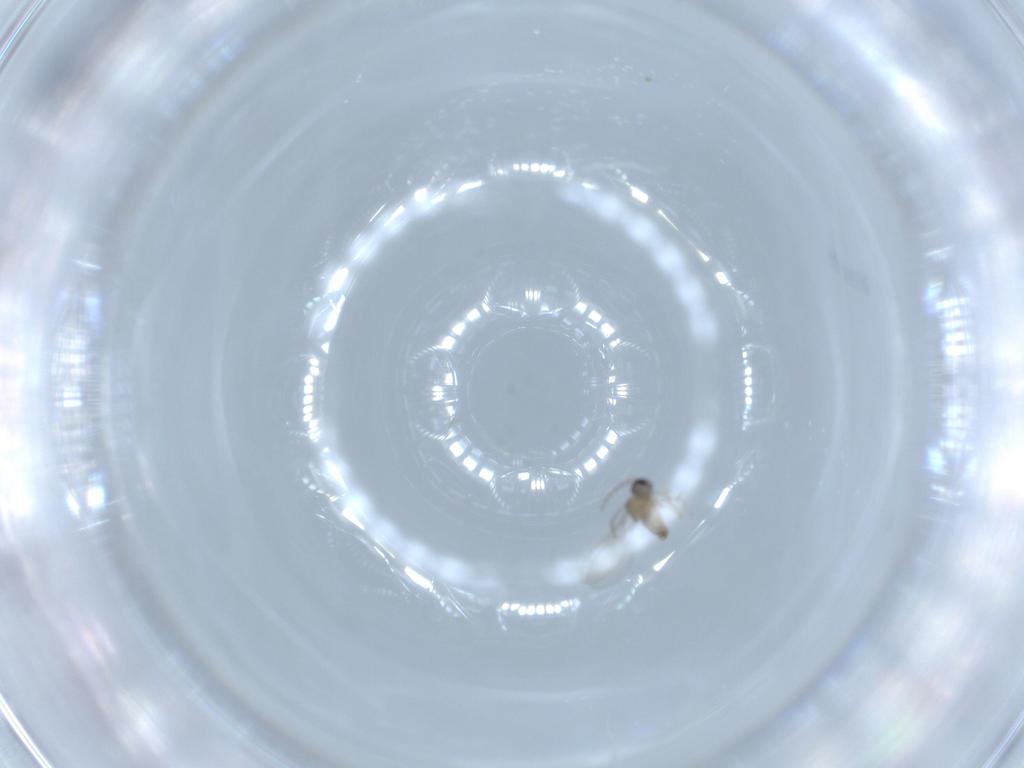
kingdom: Animalia
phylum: Arthropoda
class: Insecta
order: Diptera
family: Cecidomyiidae
